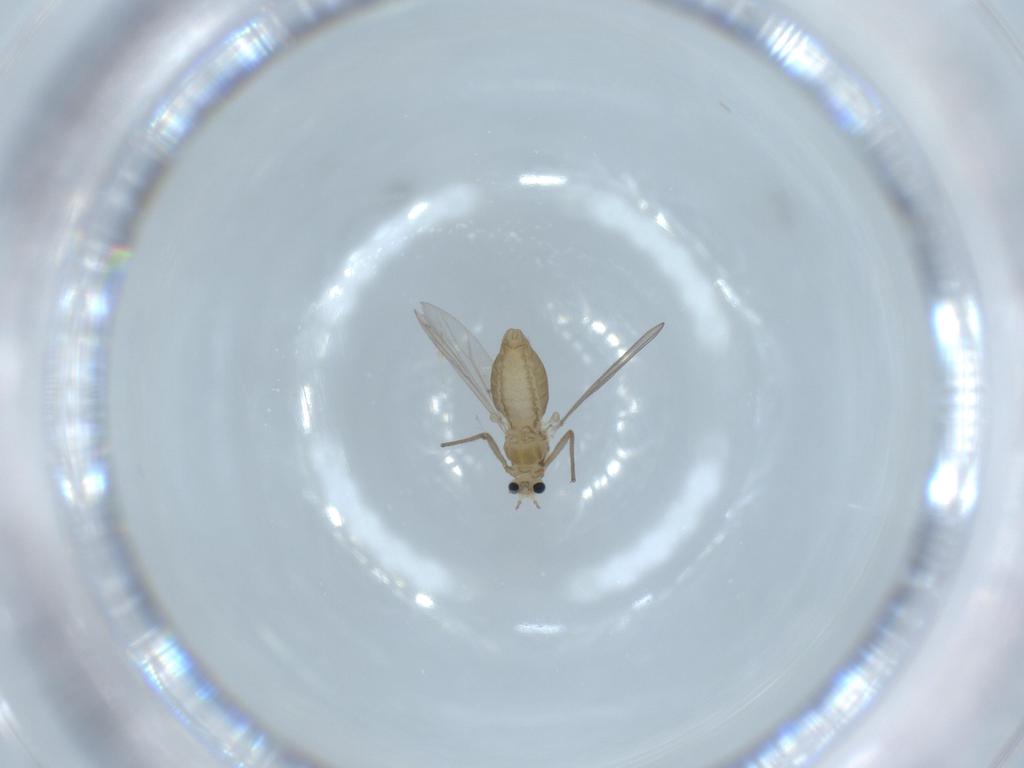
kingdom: Animalia
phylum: Arthropoda
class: Insecta
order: Diptera
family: Chironomidae
